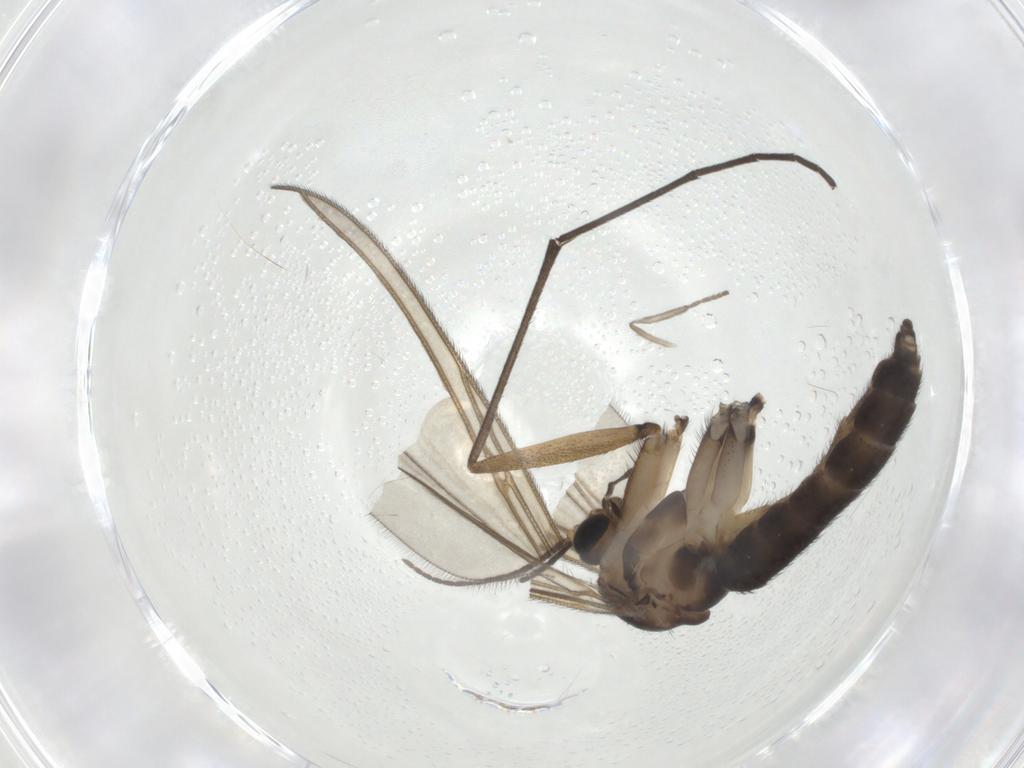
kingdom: Animalia
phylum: Arthropoda
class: Insecta
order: Diptera
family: Sciaridae
